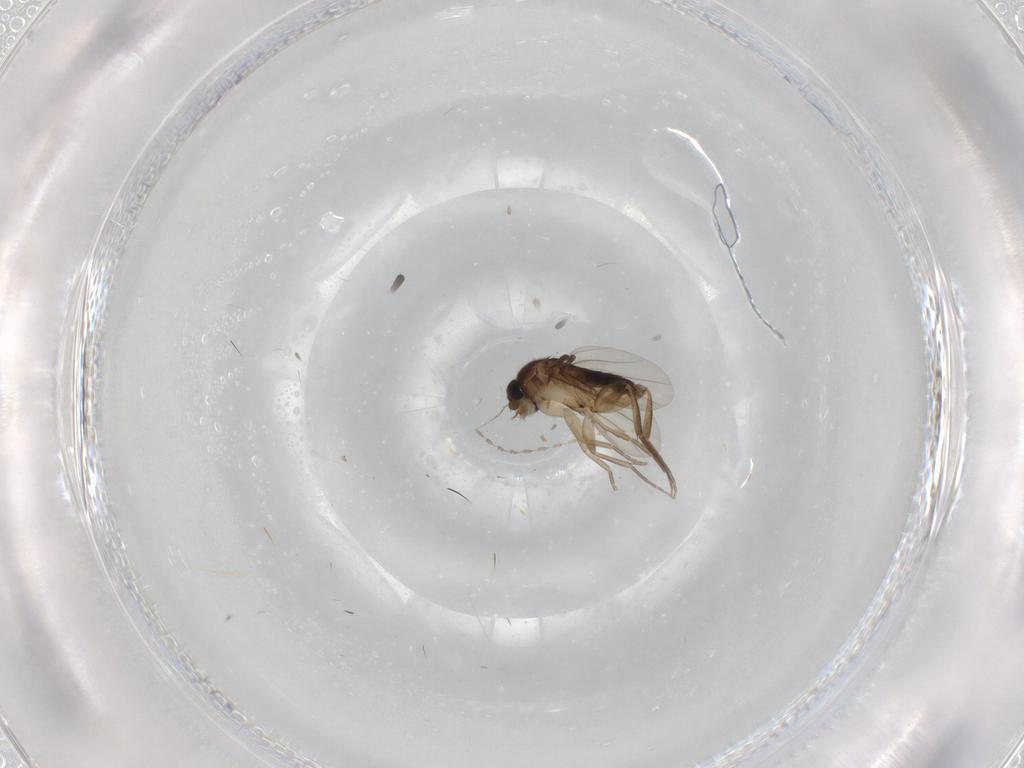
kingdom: Animalia
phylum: Arthropoda
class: Insecta
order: Diptera
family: Phoridae
